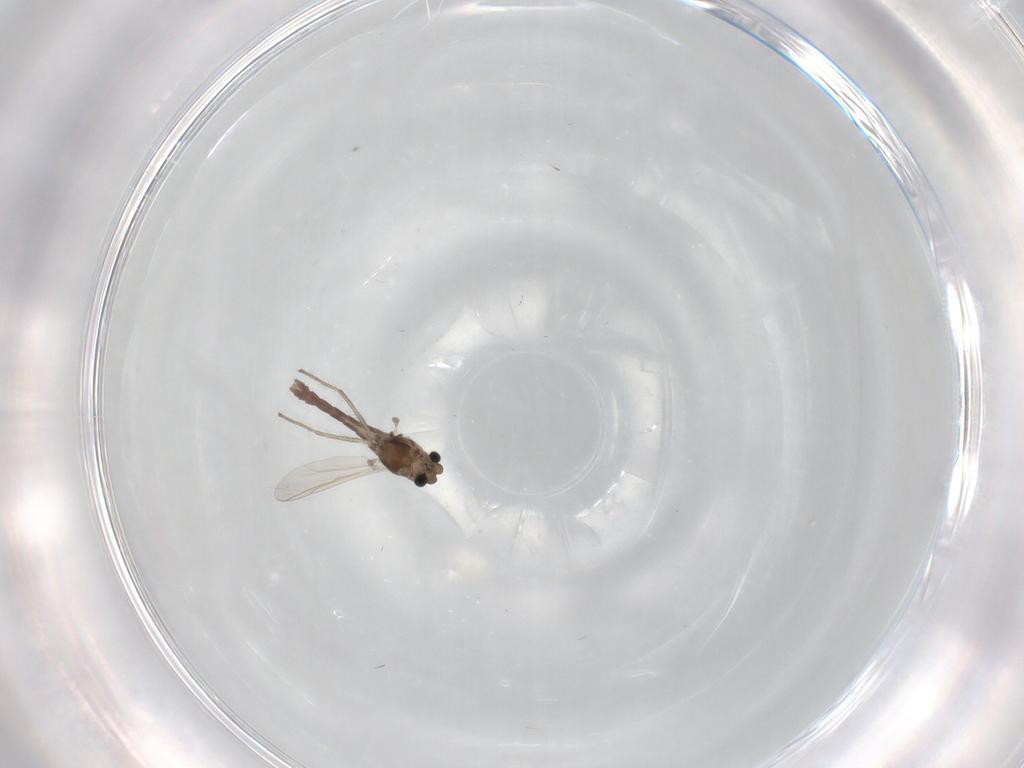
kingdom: Animalia
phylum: Arthropoda
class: Insecta
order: Diptera
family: Chironomidae
